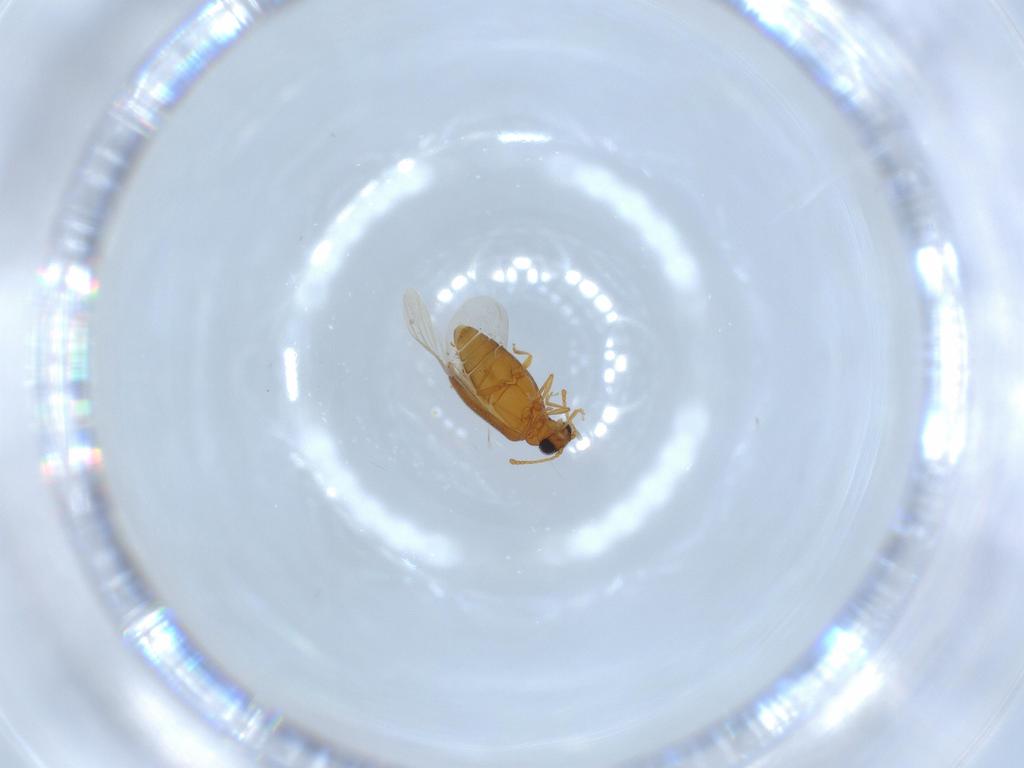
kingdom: Animalia
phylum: Arthropoda
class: Insecta
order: Coleoptera
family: Aderidae
